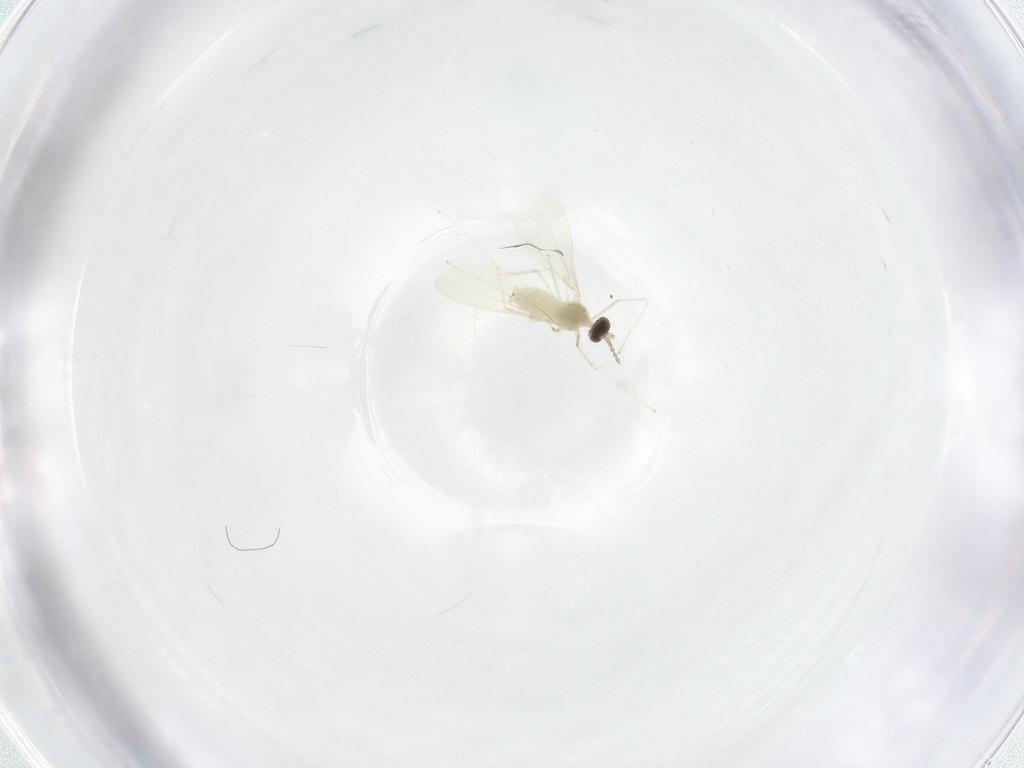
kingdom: Animalia
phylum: Arthropoda
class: Insecta
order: Diptera
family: Cecidomyiidae
